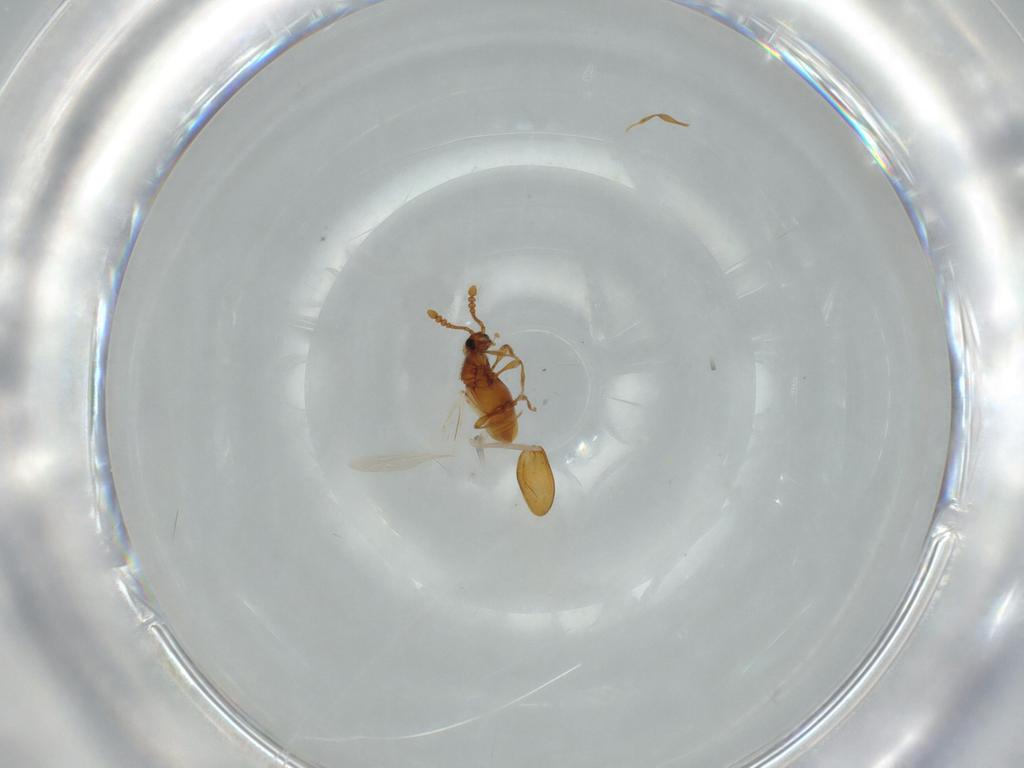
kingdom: Animalia
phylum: Arthropoda
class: Insecta
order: Coleoptera
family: Staphylinidae
